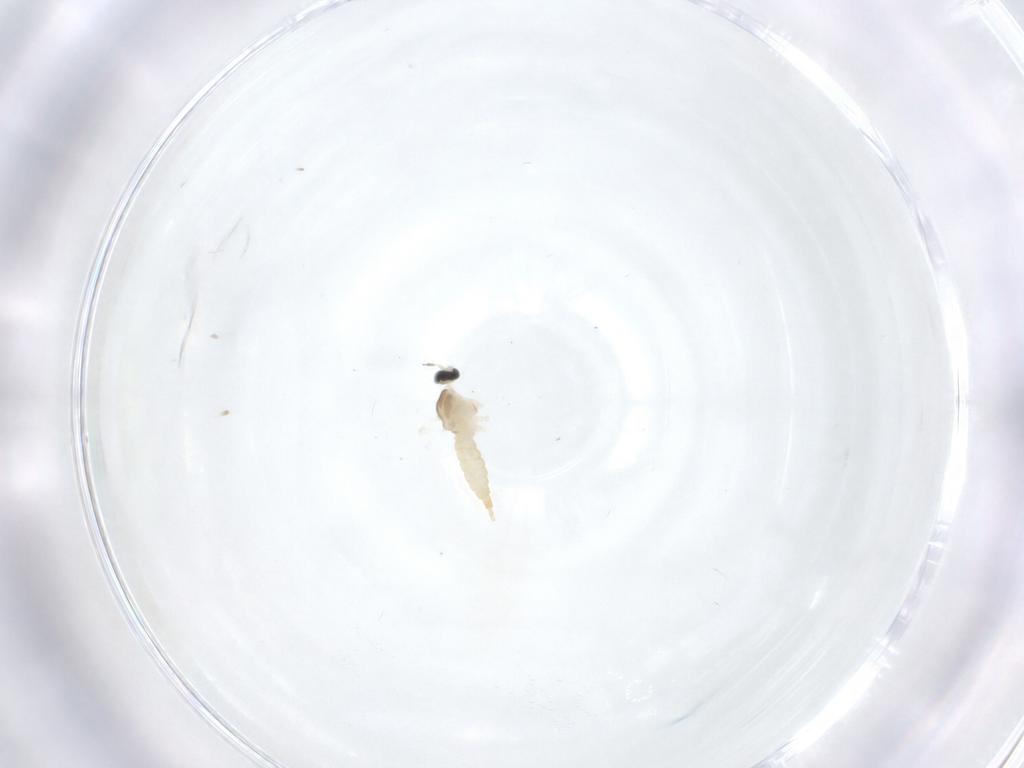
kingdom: Animalia
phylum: Arthropoda
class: Insecta
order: Diptera
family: Cecidomyiidae
